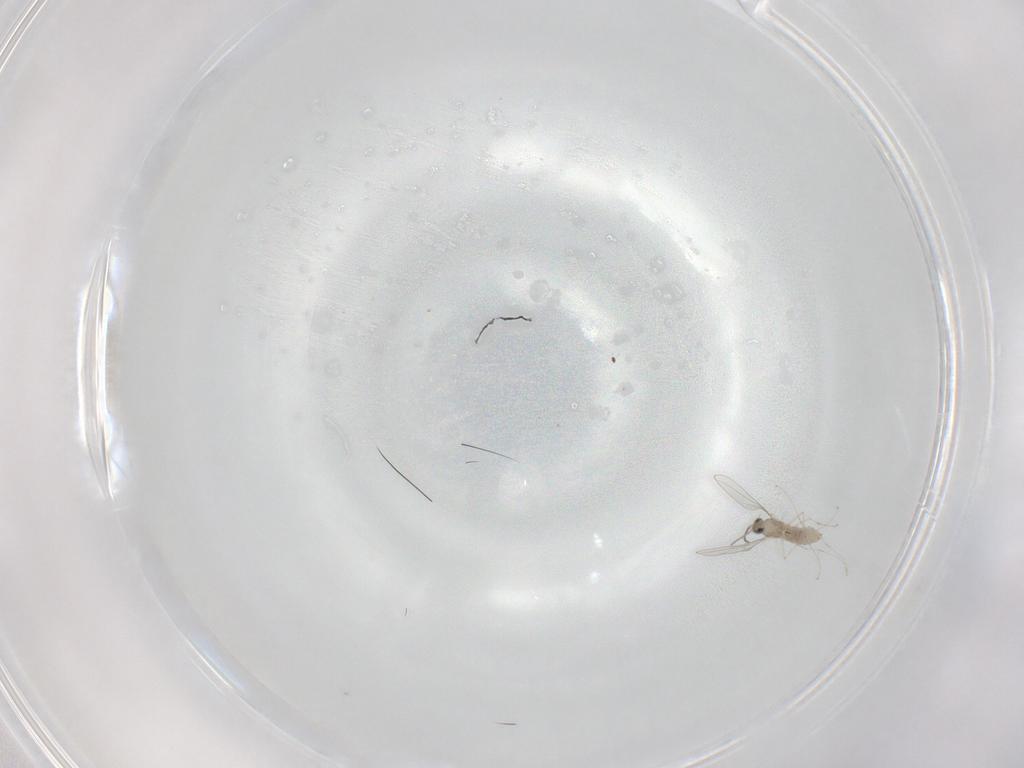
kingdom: Animalia
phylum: Arthropoda
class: Insecta
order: Diptera
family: Cecidomyiidae
